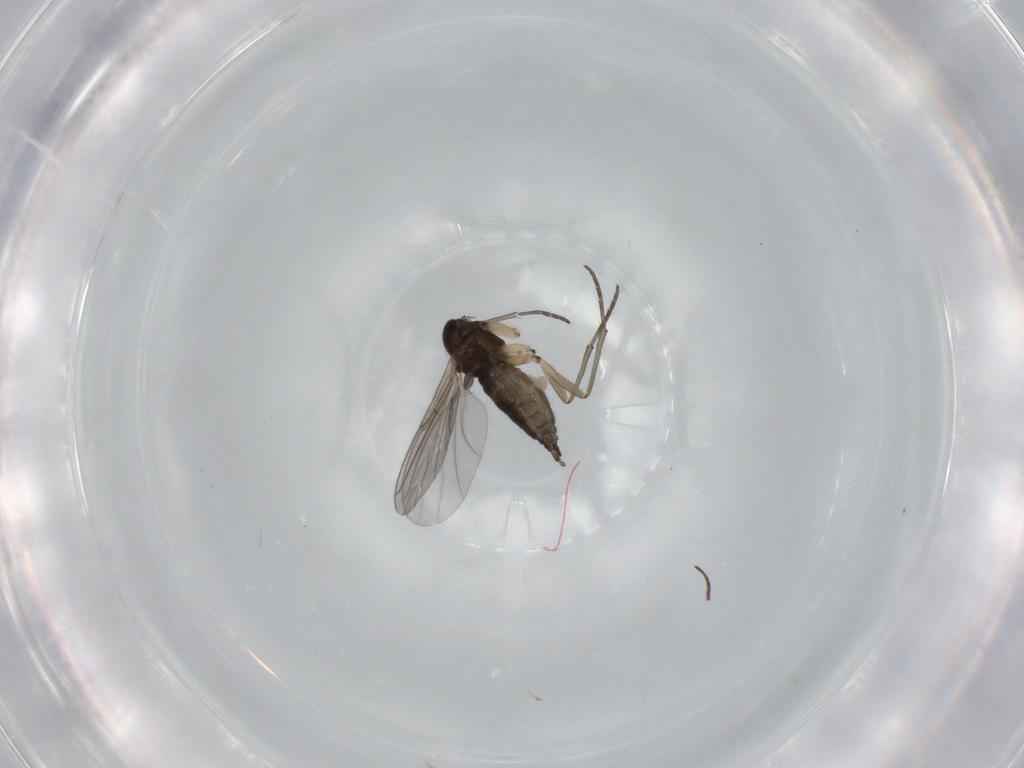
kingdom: Animalia
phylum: Arthropoda
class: Insecta
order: Diptera
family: Sciaridae
